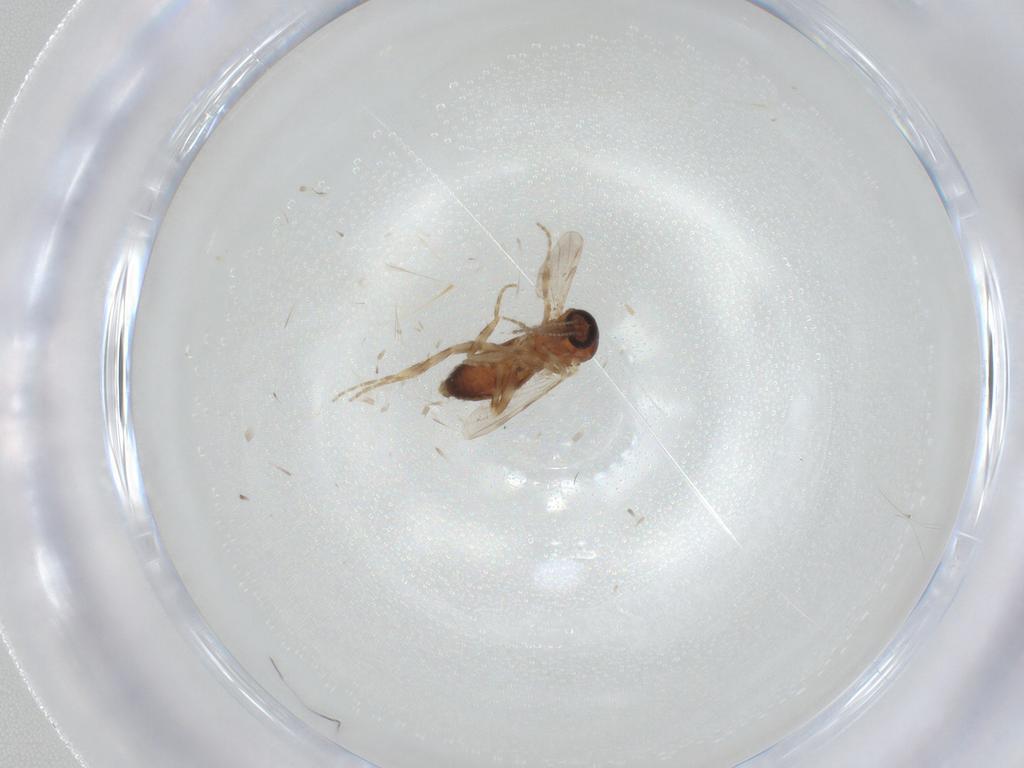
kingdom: Animalia
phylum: Arthropoda
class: Insecta
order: Diptera
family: Ceratopogonidae
